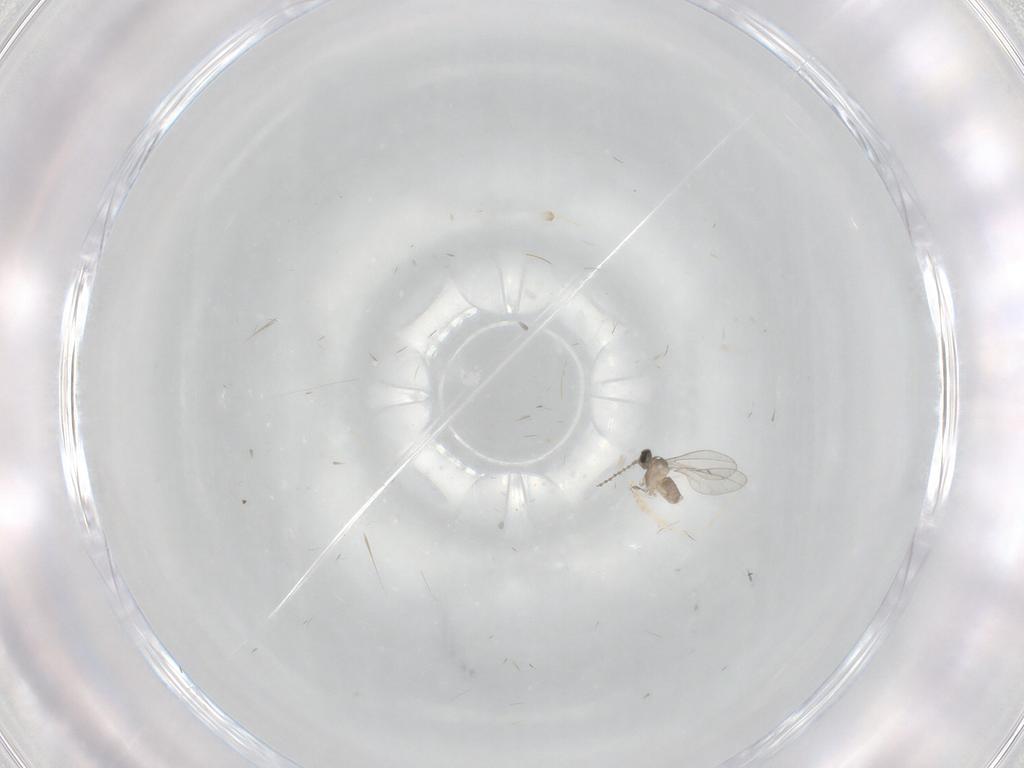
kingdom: Animalia
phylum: Arthropoda
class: Insecta
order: Diptera
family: Cecidomyiidae
